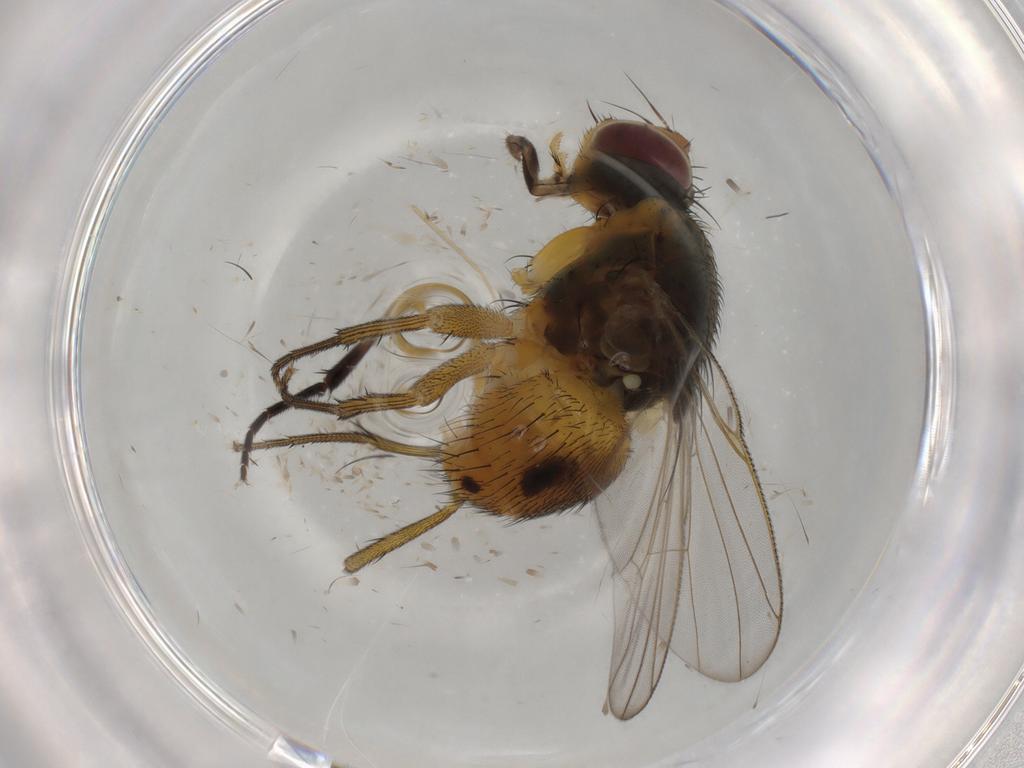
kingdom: Animalia
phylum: Arthropoda
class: Insecta
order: Diptera
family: Muscidae
